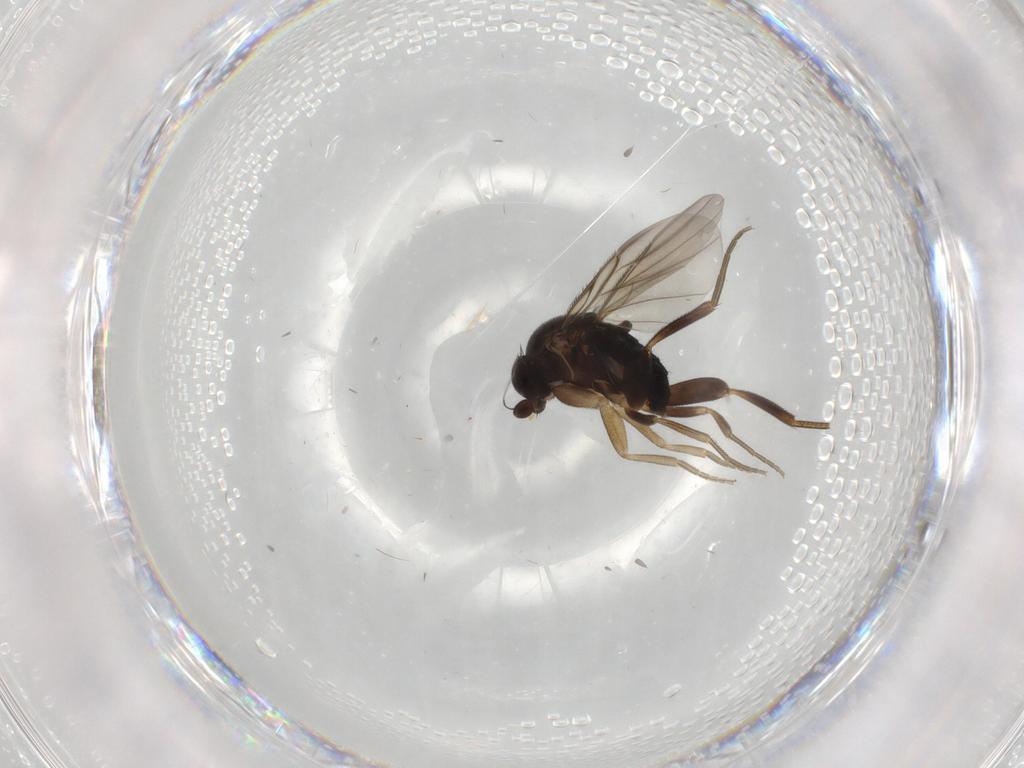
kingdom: Animalia
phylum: Arthropoda
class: Insecta
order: Diptera
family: Chironomidae
